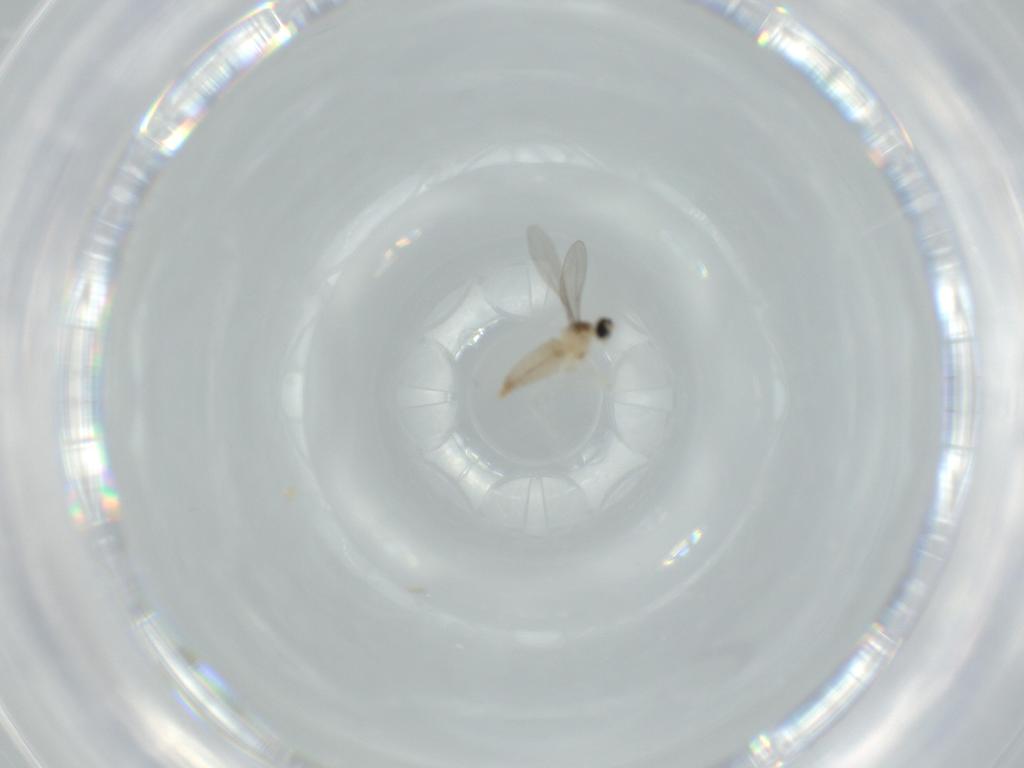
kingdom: Animalia
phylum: Arthropoda
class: Insecta
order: Diptera
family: Chironomidae
